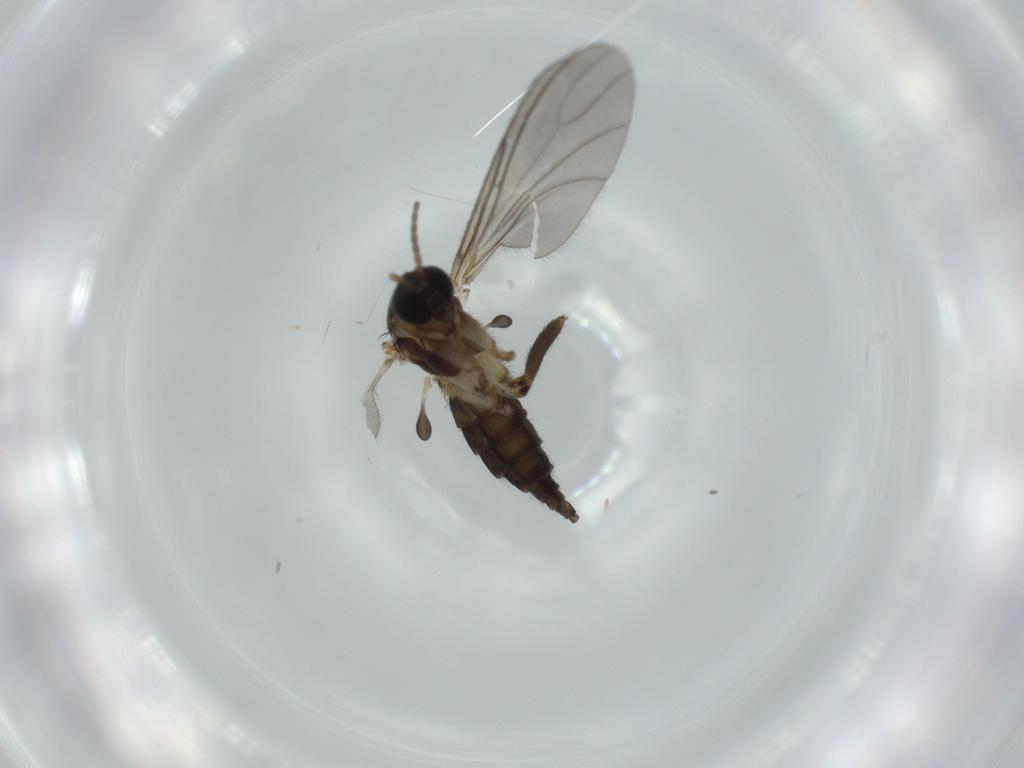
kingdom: Animalia
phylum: Arthropoda
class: Insecta
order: Diptera
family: Sciaridae
